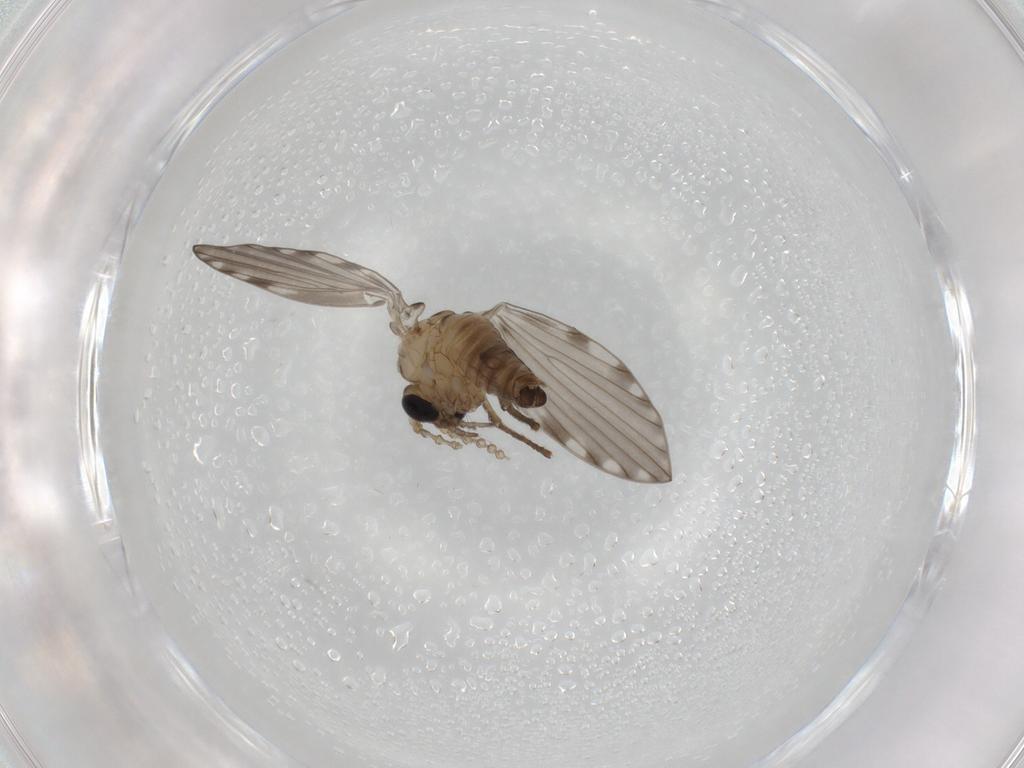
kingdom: Animalia
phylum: Arthropoda
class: Insecta
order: Diptera
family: Psychodidae
